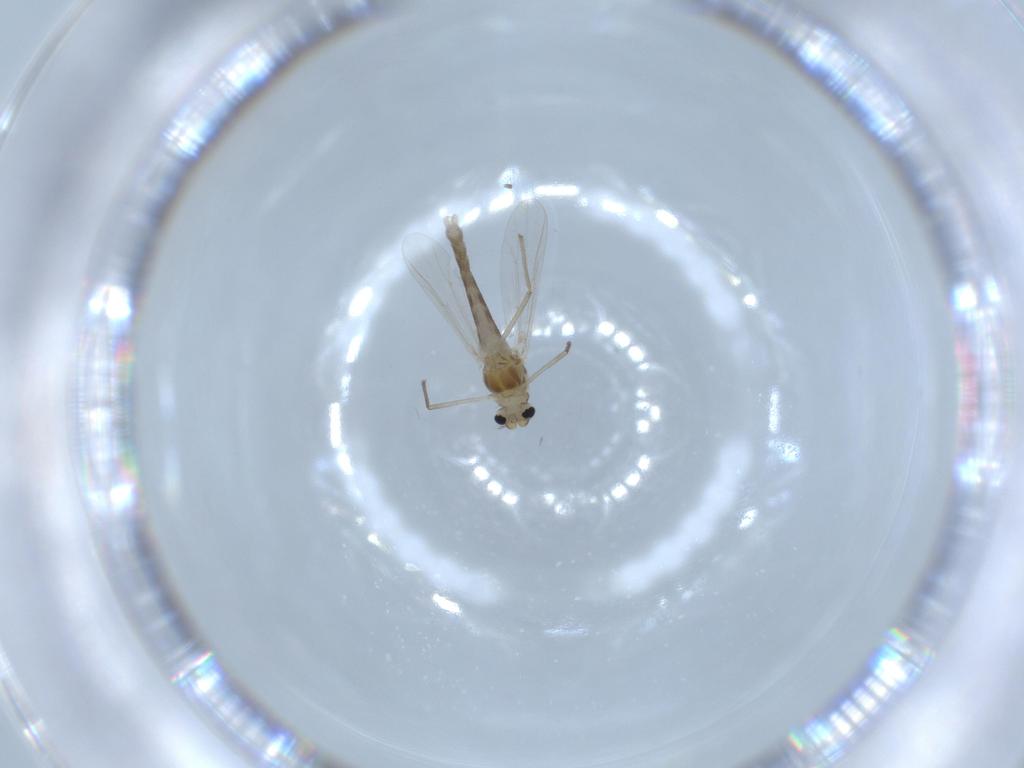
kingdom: Animalia
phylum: Arthropoda
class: Insecta
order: Diptera
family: Chironomidae
